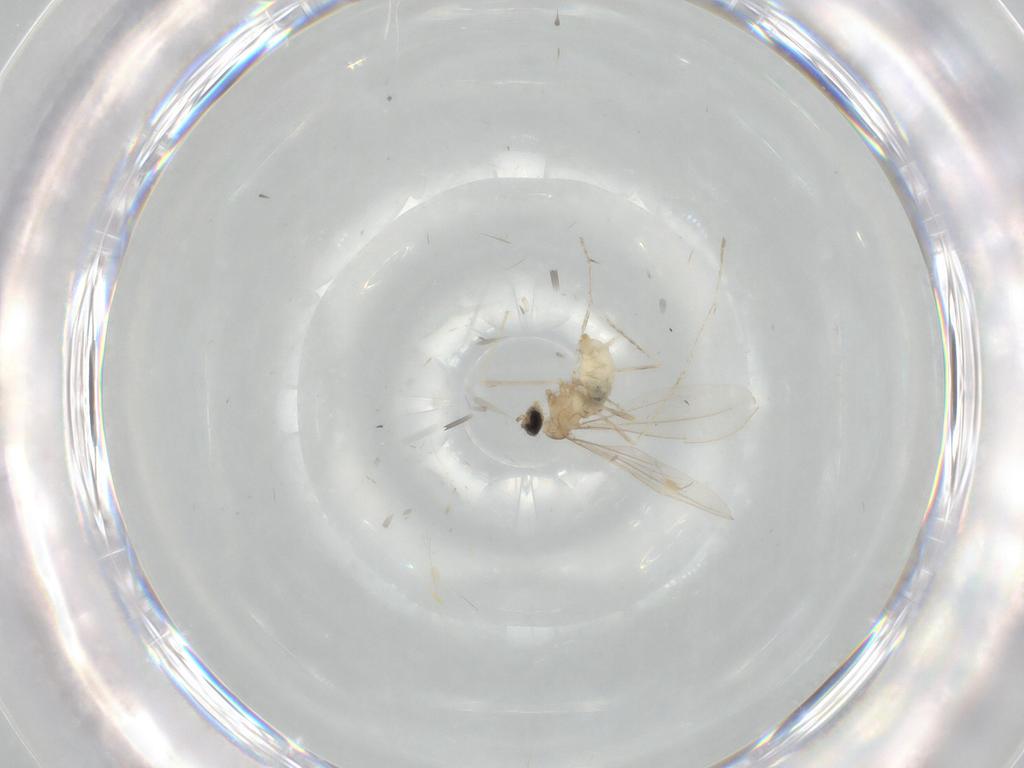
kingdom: Animalia
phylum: Arthropoda
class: Insecta
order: Diptera
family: Cecidomyiidae
